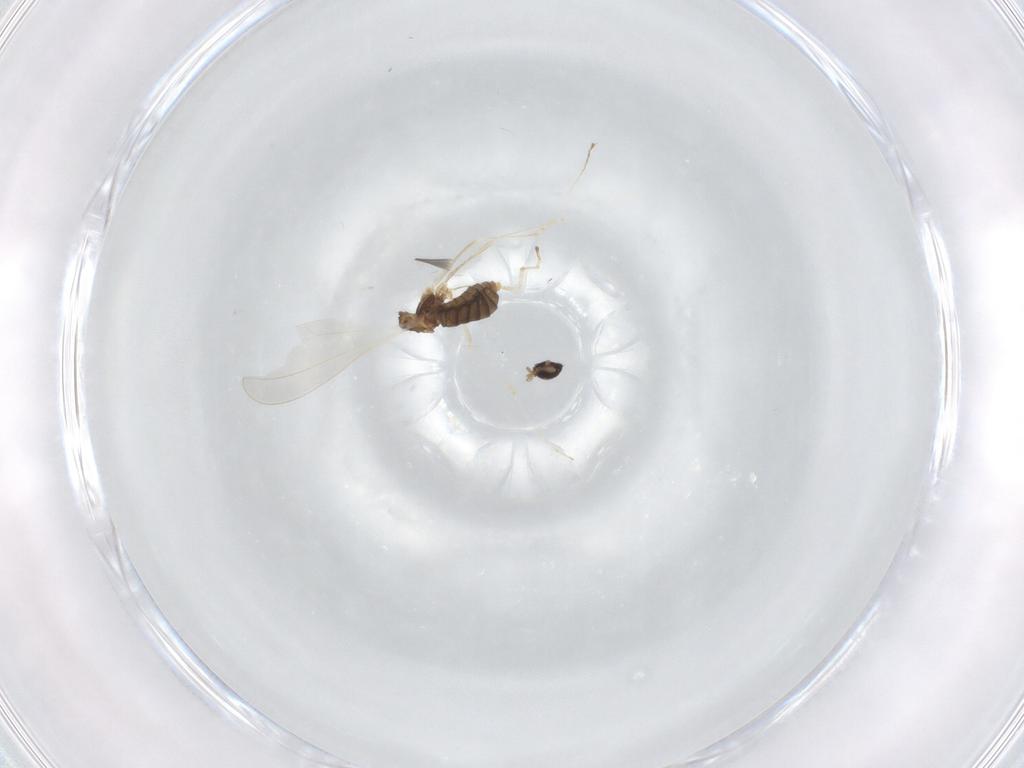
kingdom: Animalia
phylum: Arthropoda
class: Insecta
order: Diptera
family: Cecidomyiidae
